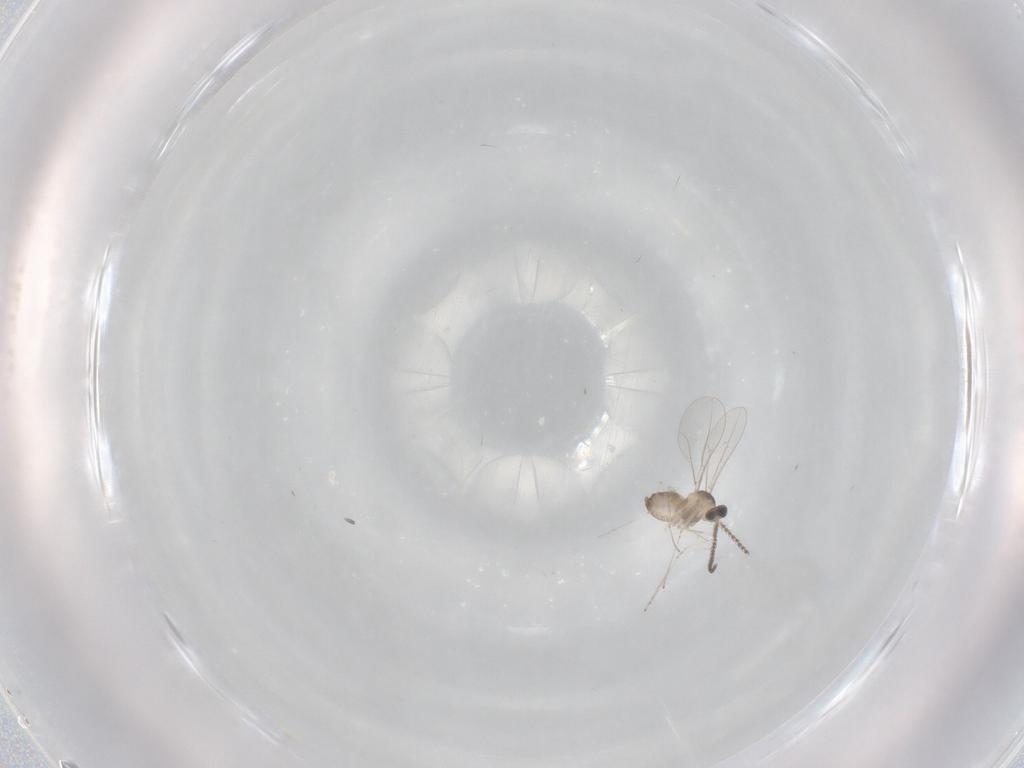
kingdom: Animalia
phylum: Arthropoda
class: Insecta
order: Diptera
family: Cecidomyiidae
